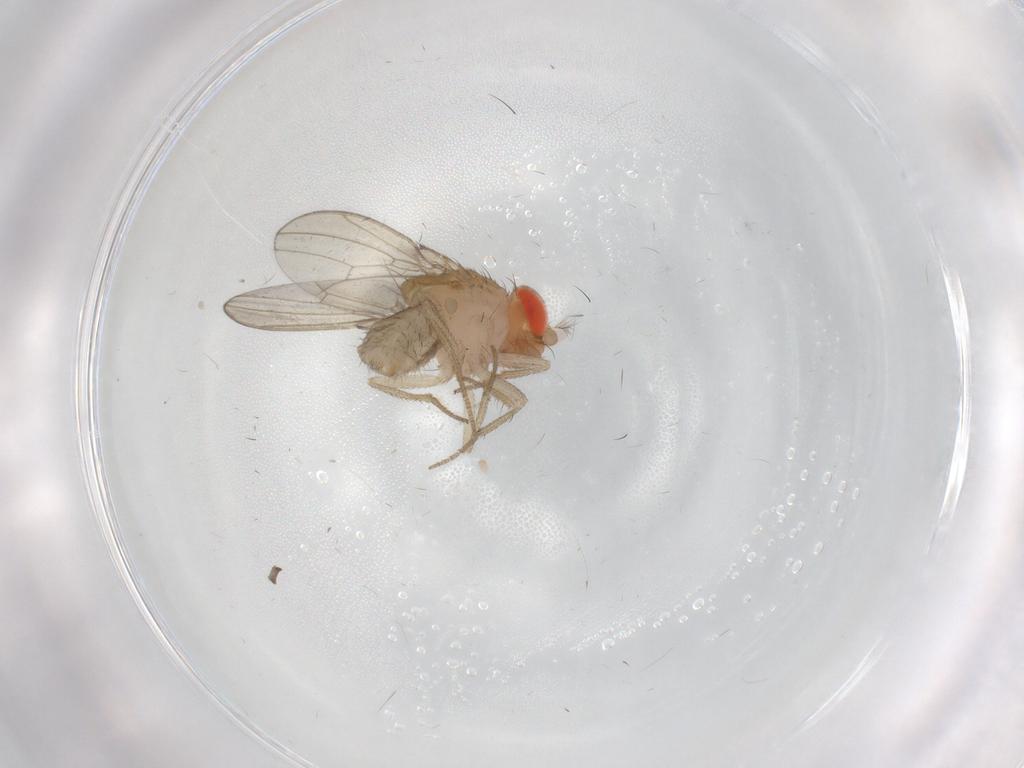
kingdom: Animalia
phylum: Arthropoda
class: Insecta
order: Diptera
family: Drosophilidae
